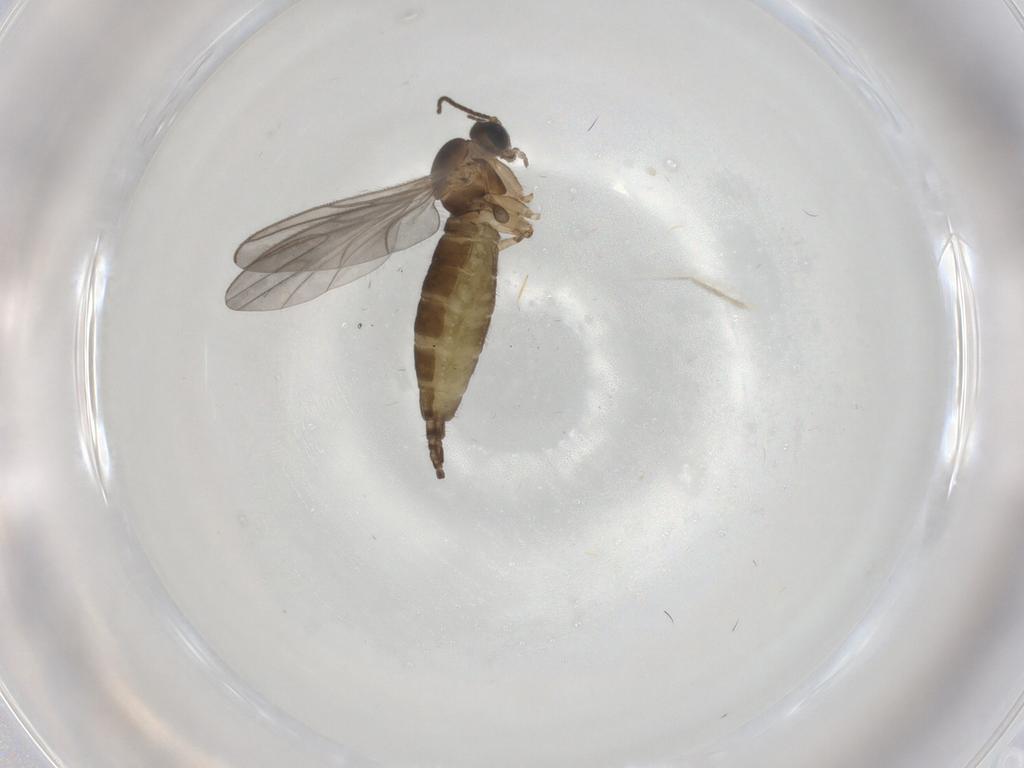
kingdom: Animalia
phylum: Arthropoda
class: Insecta
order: Diptera
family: Sciaridae
